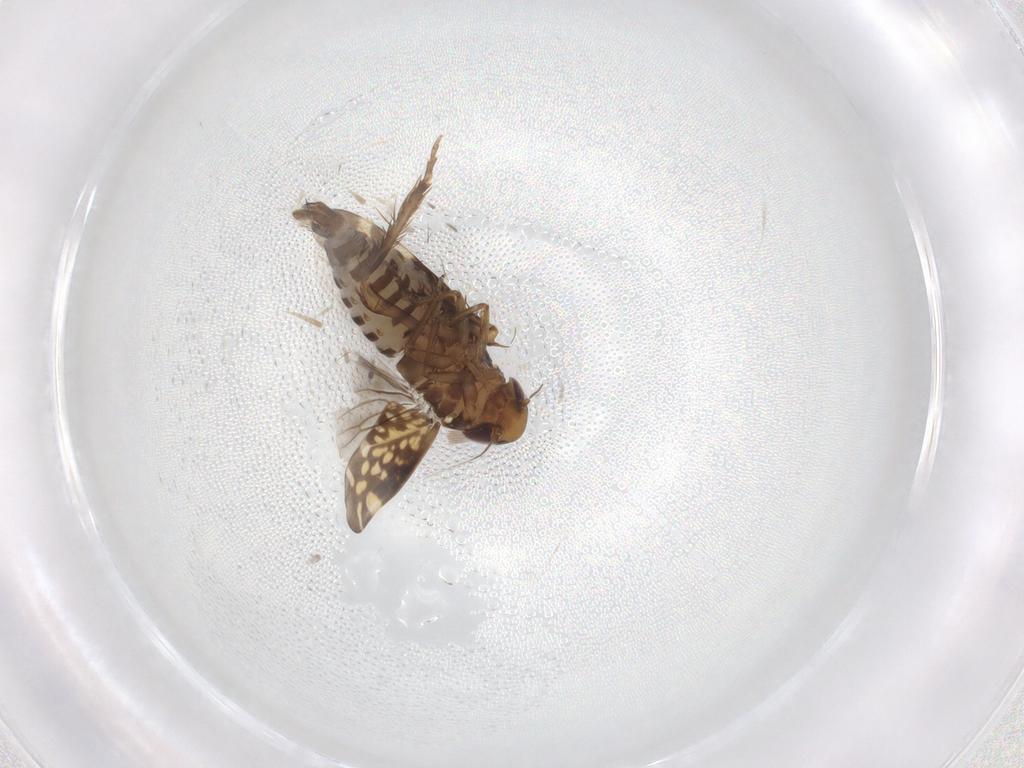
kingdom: Animalia
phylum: Arthropoda
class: Insecta
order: Hemiptera
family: Cicadellidae
